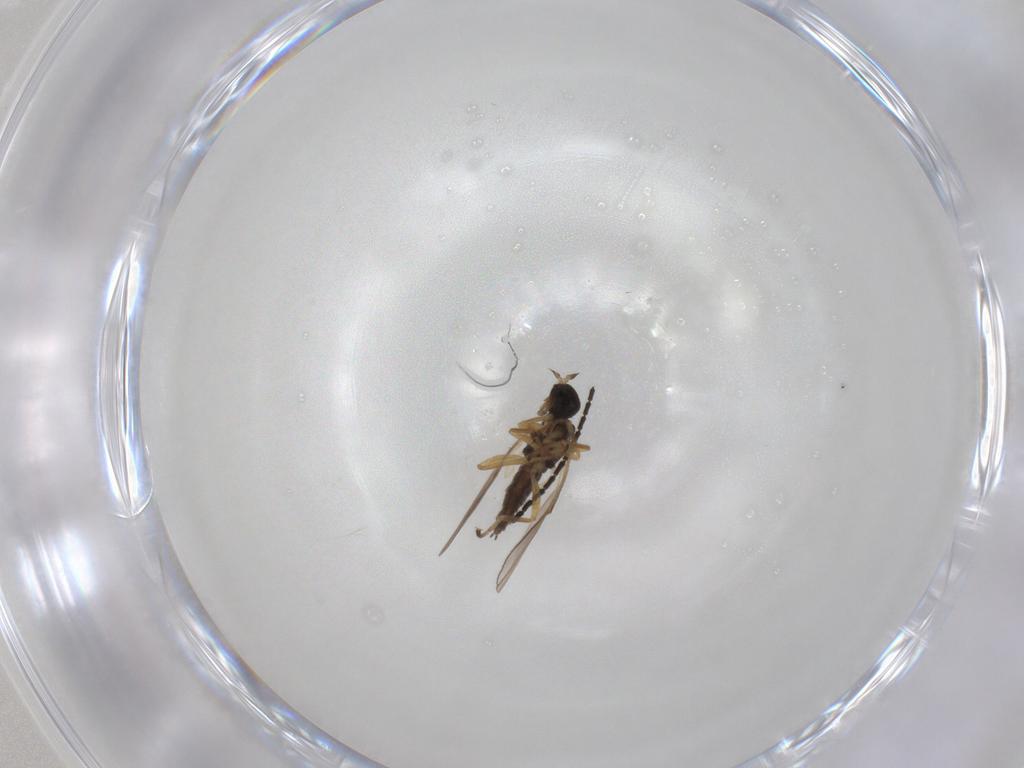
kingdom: Animalia
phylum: Arthropoda
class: Insecta
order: Diptera
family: Hybotidae
